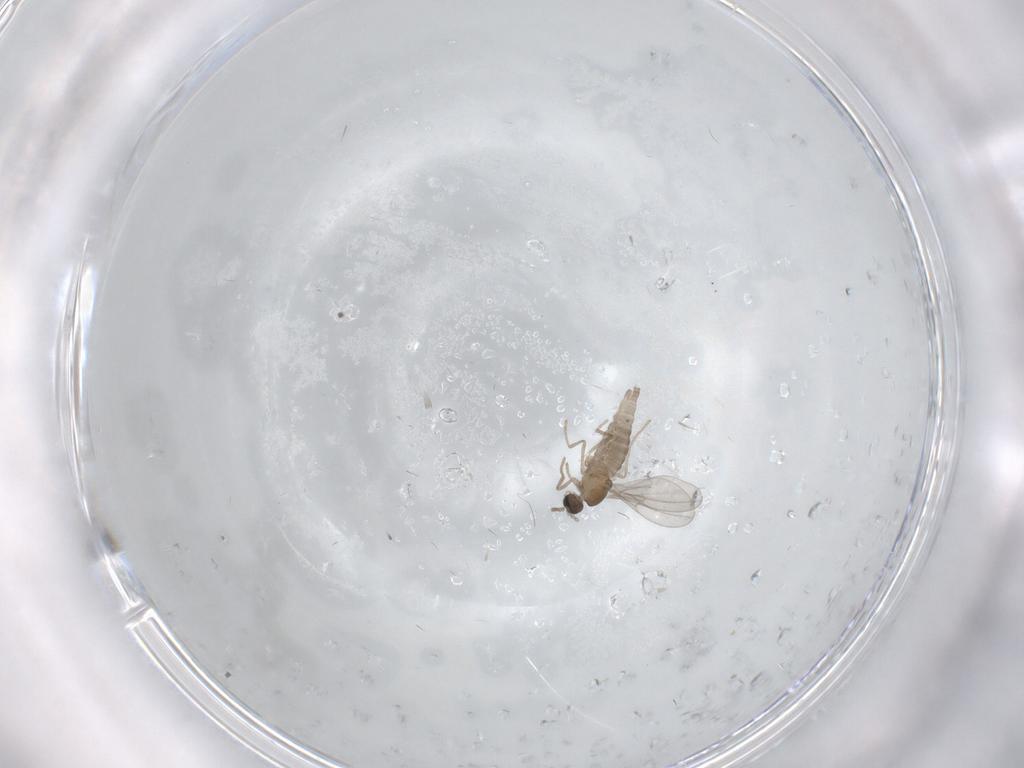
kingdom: Animalia
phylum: Arthropoda
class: Insecta
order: Diptera
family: Cecidomyiidae
